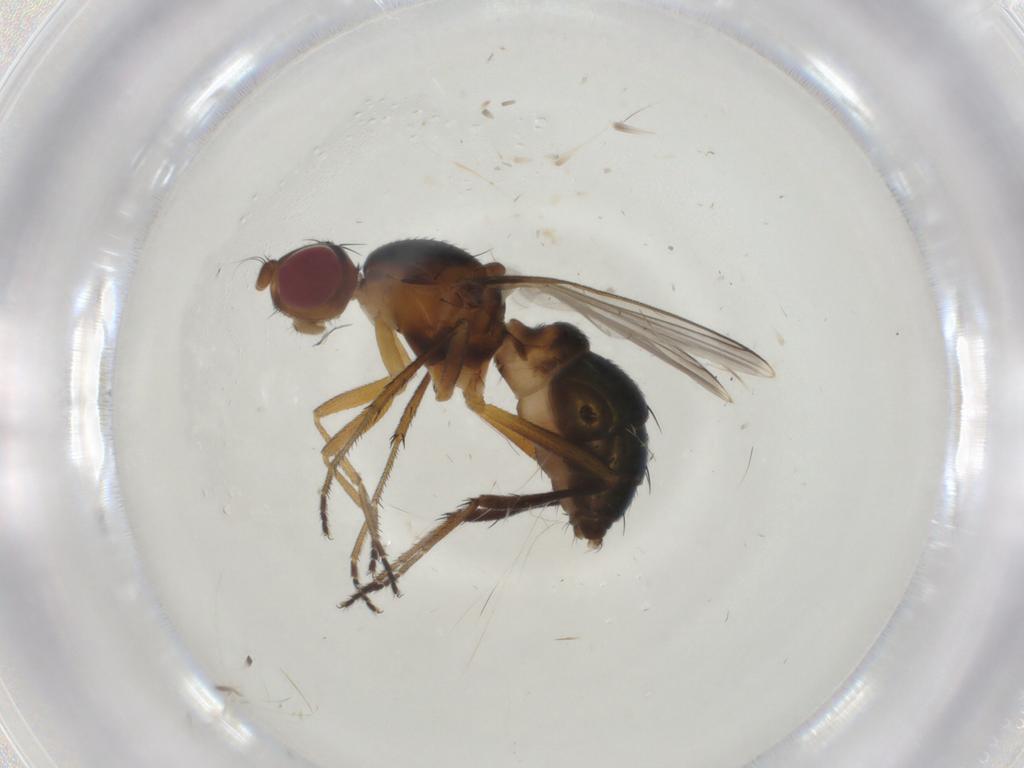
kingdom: Animalia
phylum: Arthropoda
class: Insecta
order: Diptera
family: Sepsidae
